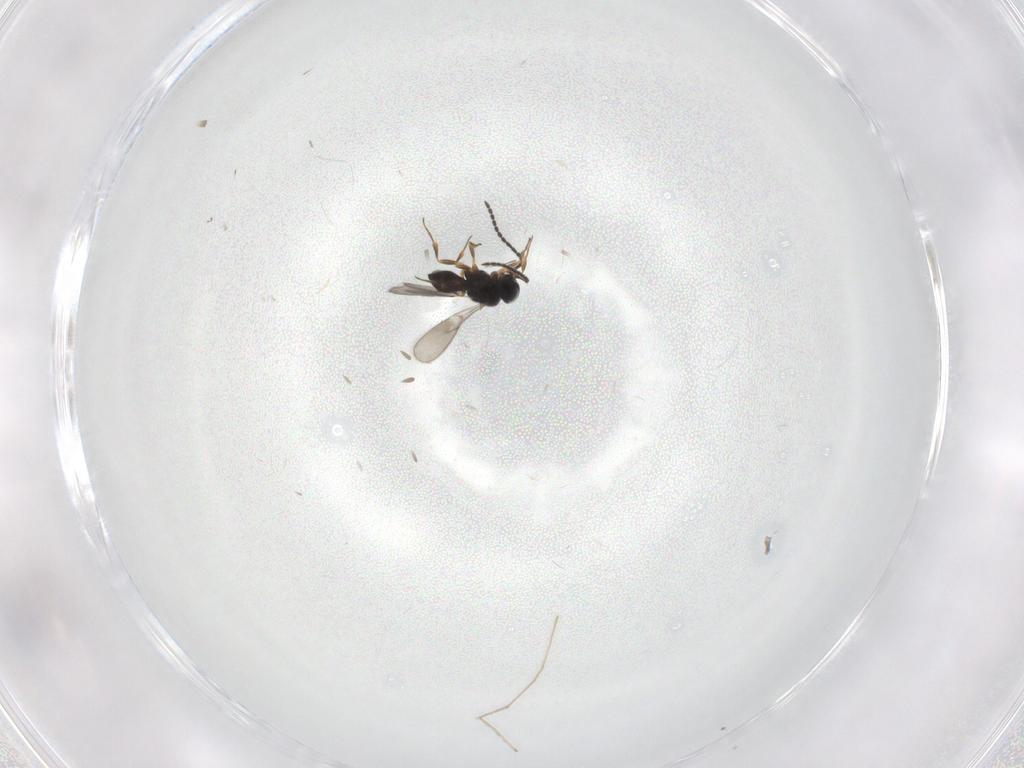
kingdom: Animalia
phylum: Arthropoda
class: Insecta
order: Hymenoptera
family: Scelionidae
